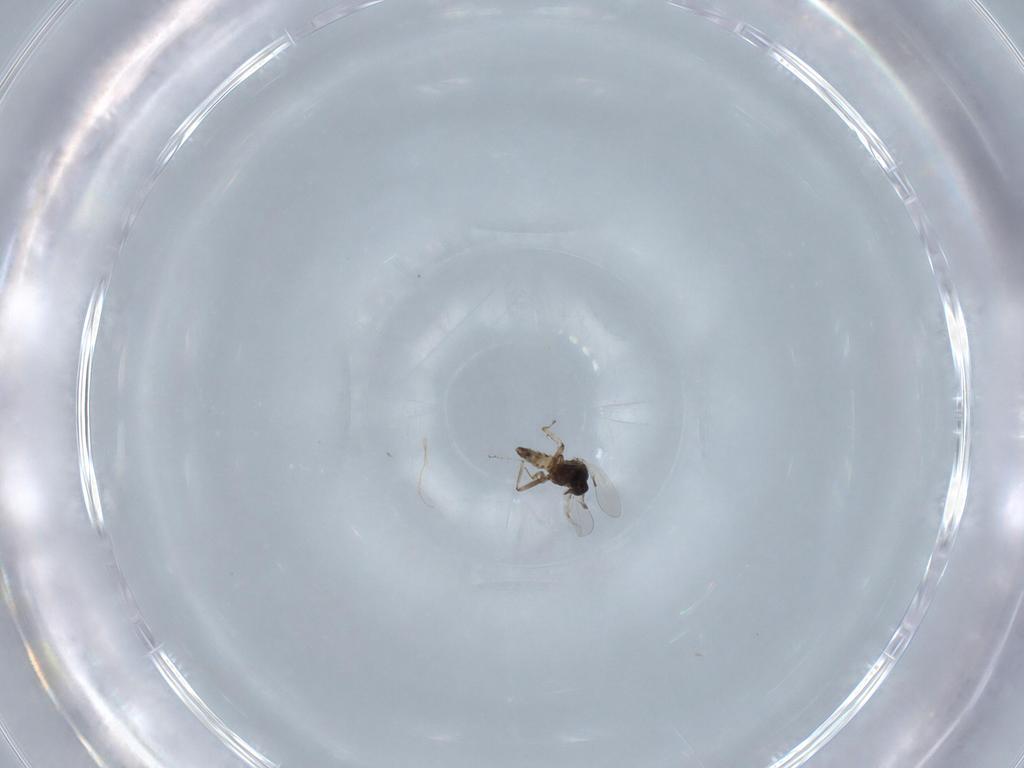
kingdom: Animalia
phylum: Arthropoda
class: Insecta
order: Diptera
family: Ceratopogonidae
